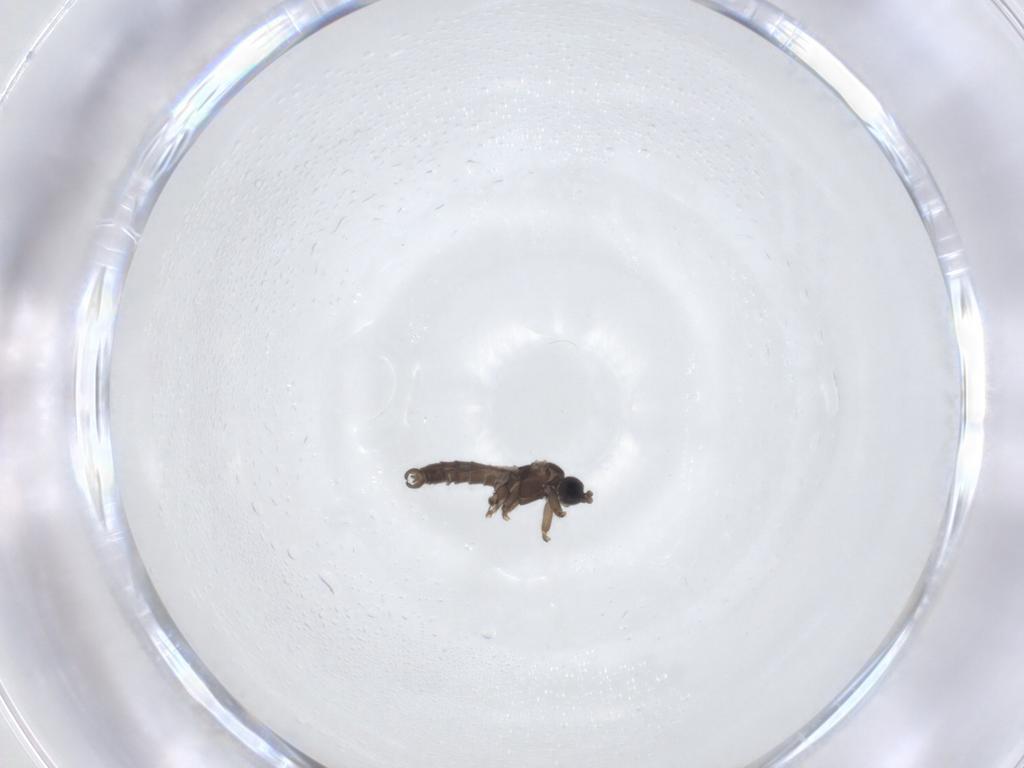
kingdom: Animalia
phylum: Arthropoda
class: Insecta
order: Diptera
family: Sciaridae
